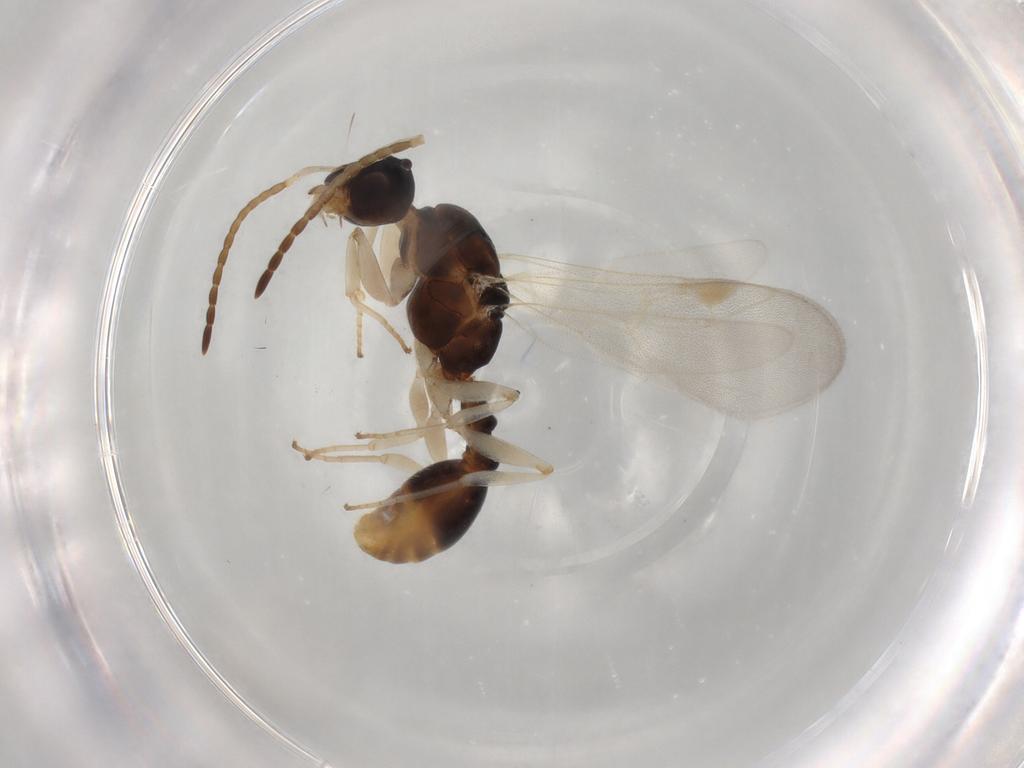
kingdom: Animalia
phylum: Arthropoda
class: Insecta
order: Hymenoptera
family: Formicidae
